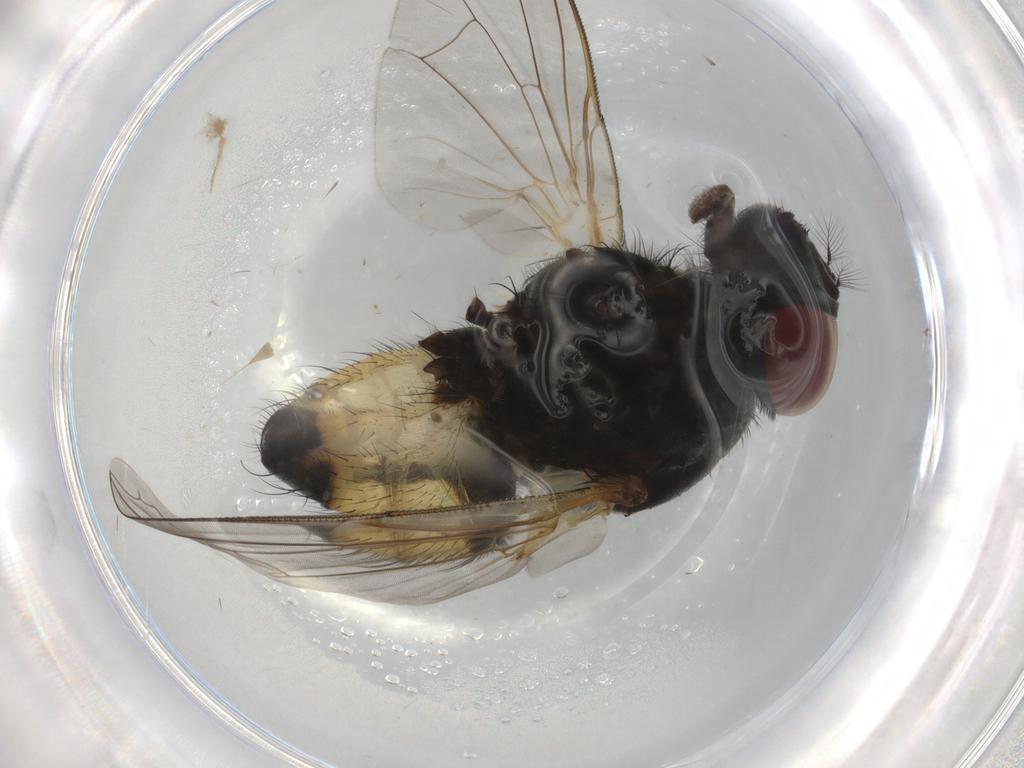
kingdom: Animalia
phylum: Arthropoda
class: Insecta
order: Diptera
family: Muscidae
